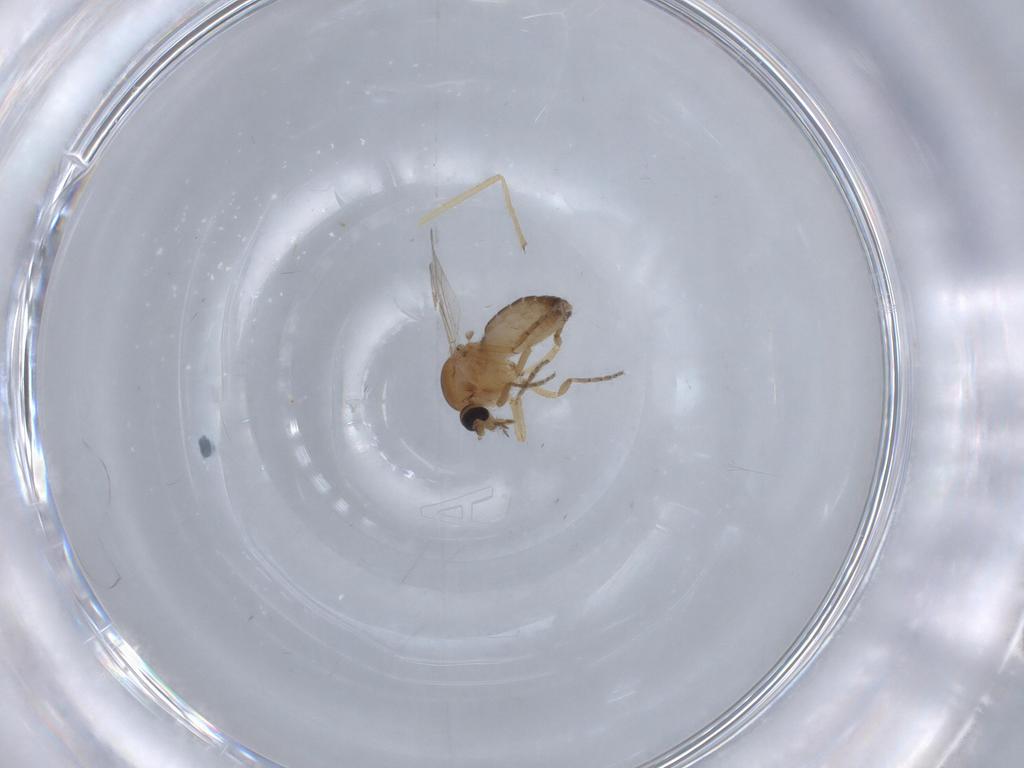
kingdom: Animalia
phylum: Arthropoda
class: Insecta
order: Diptera
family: Ceratopogonidae
